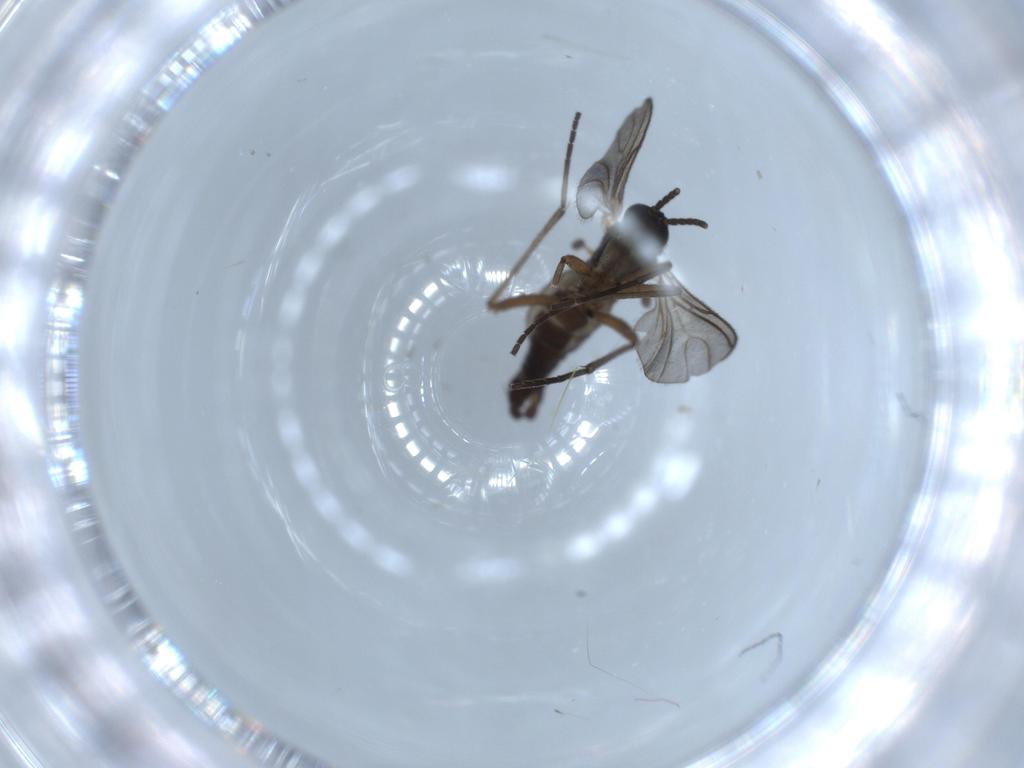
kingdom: Animalia
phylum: Arthropoda
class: Insecta
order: Diptera
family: Sciaridae
